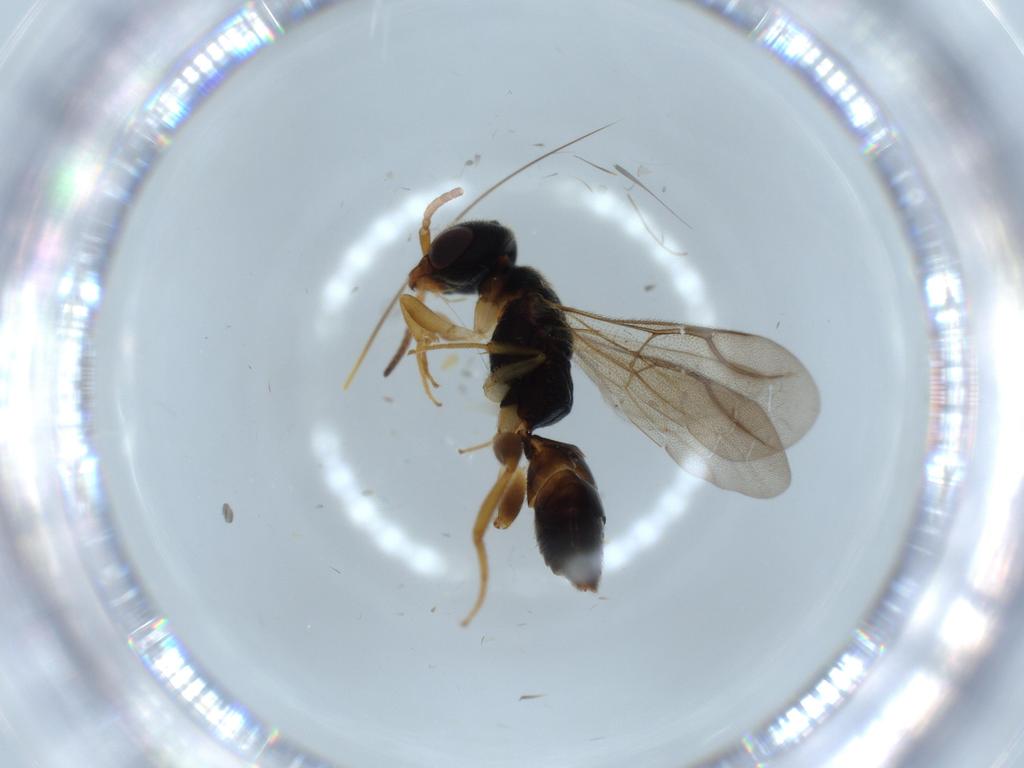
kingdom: Animalia
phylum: Arthropoda
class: Insecta
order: Hymenoptera
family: Bethylidae
